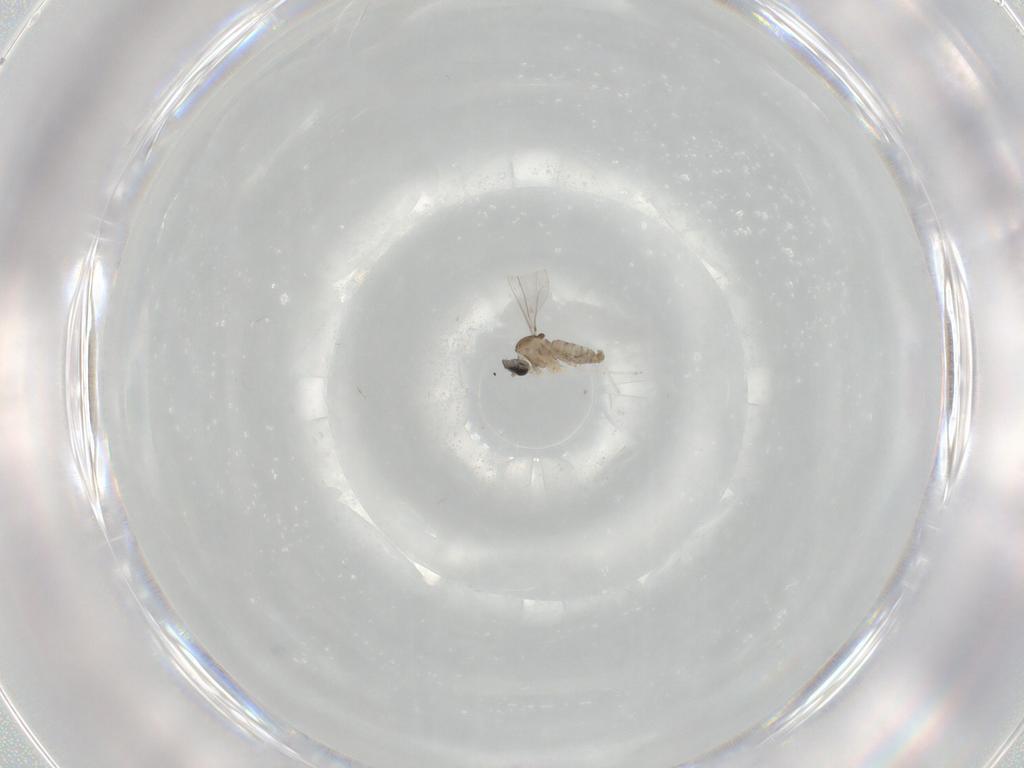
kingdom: Animalia
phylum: Arthropoda
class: Insecta
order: Diptera
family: Cecidomyiidae
